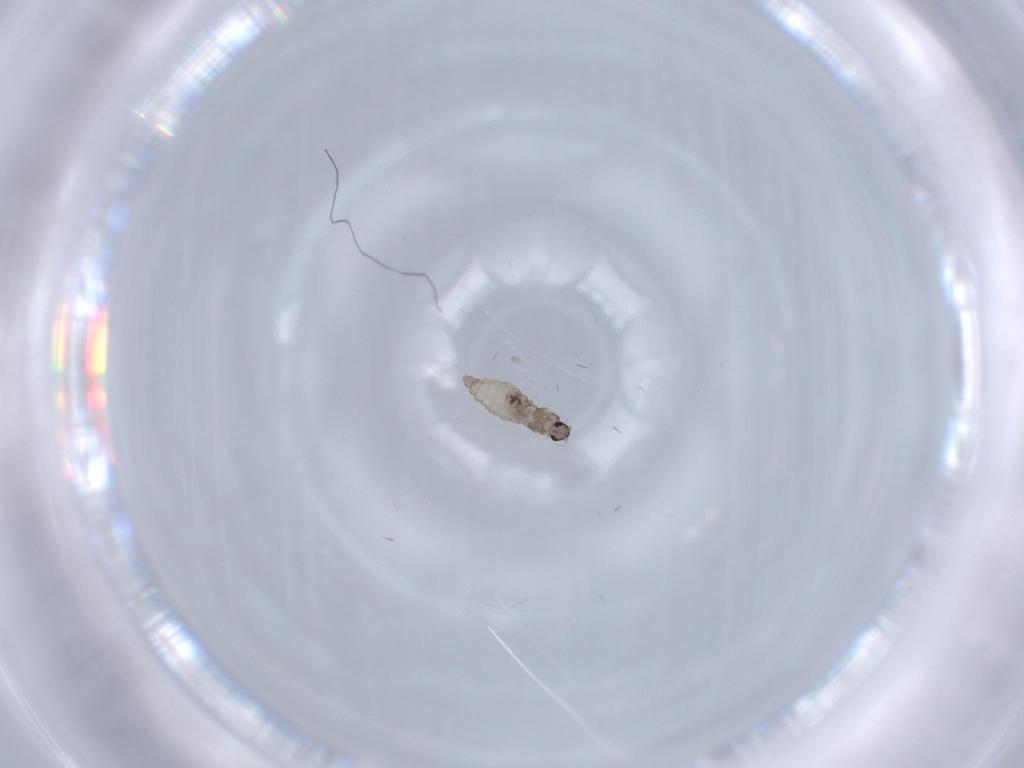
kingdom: Animalia
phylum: Arthropoda
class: Insecta
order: Diptera
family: Cecidomyiidae
